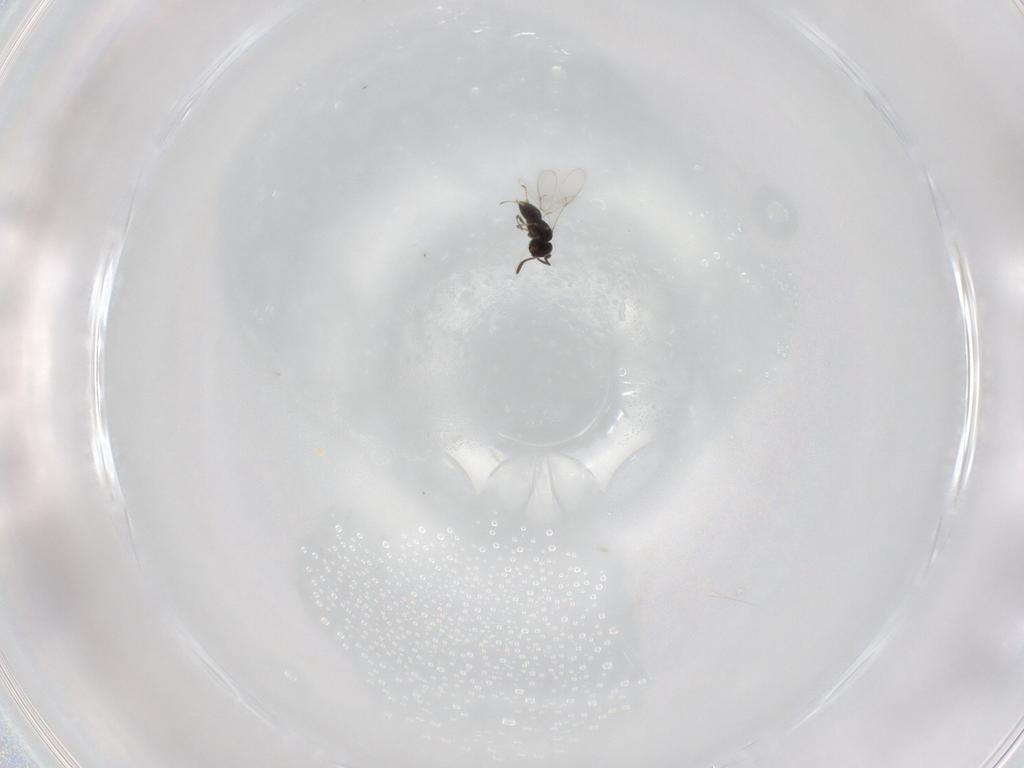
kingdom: Animalia
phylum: Arthropoda
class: Insecta
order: Hymenoptera
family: Scelionidae
